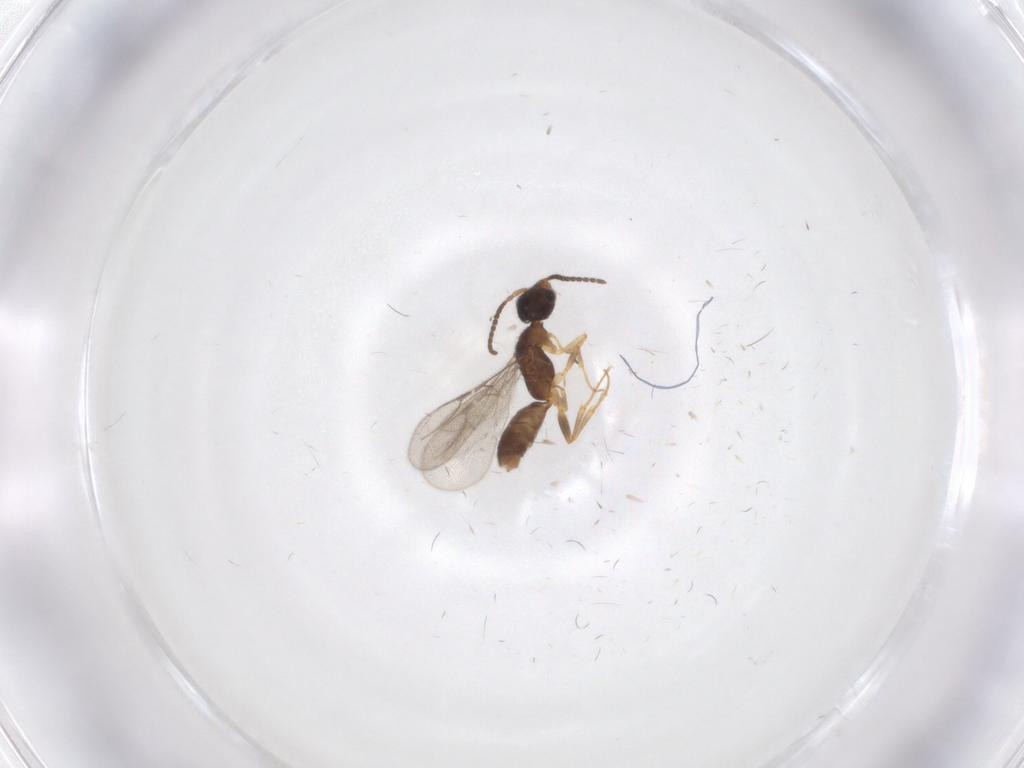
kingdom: Animalia
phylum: Arthropoda
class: Insecta
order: Hymenoptera
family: Bethylidae
